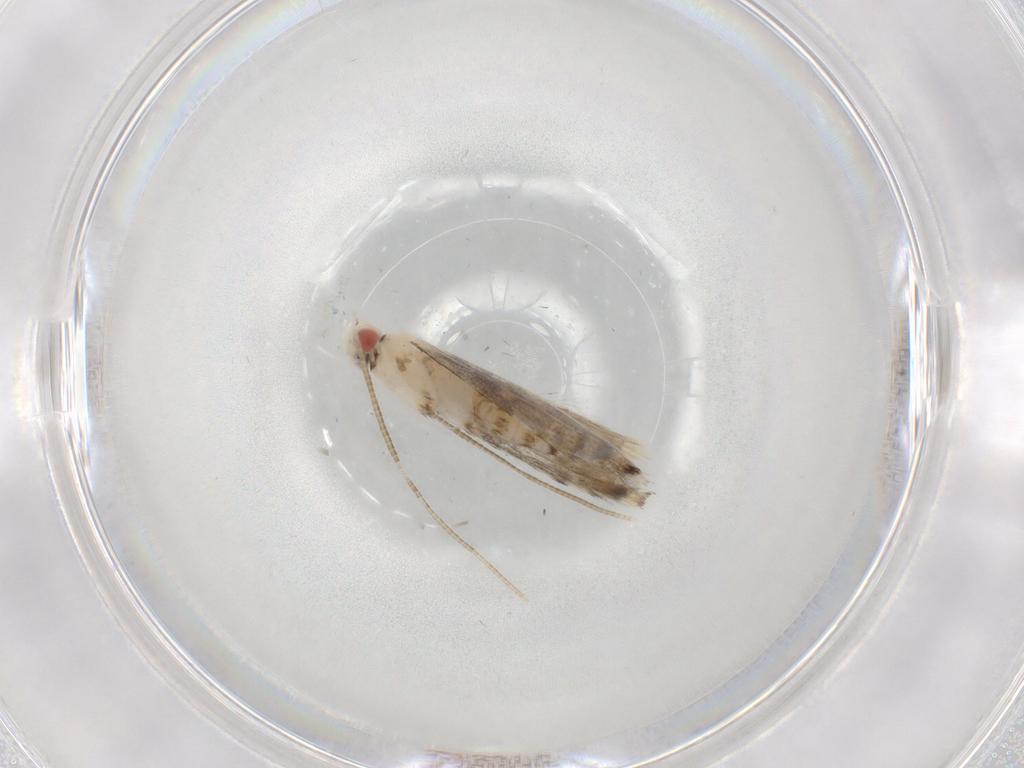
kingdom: Animalia
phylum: Arthropoda
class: Insecta
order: Lepidoptera
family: Gracillariidae
